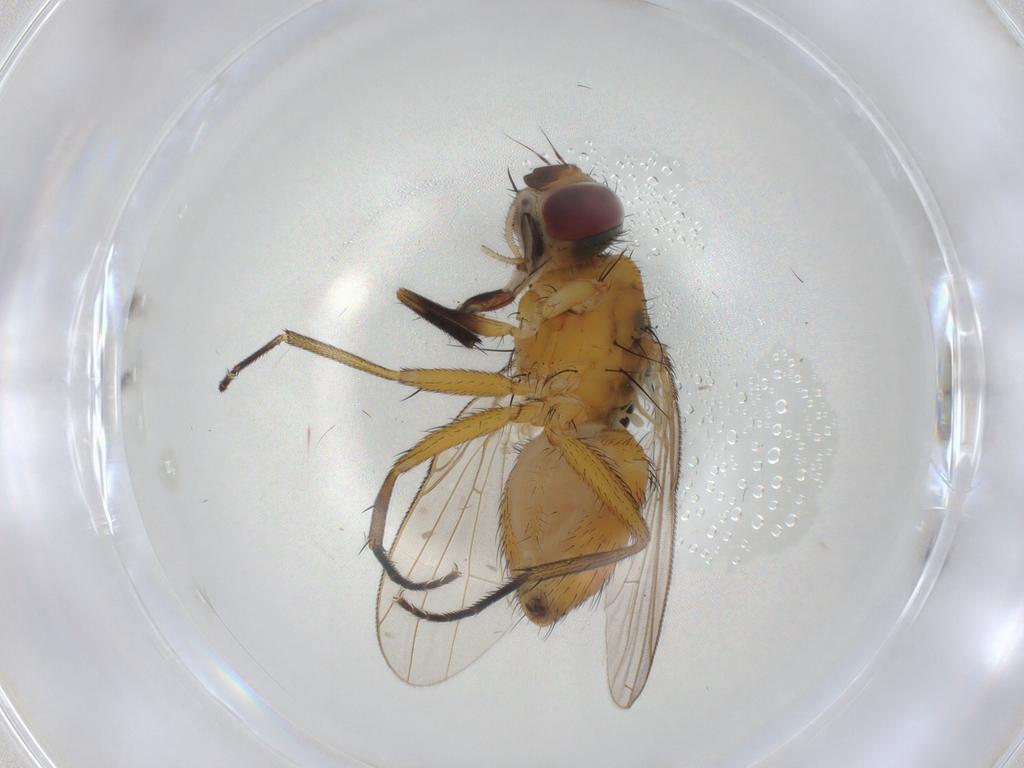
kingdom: Animalia
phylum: Arthropoda
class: Insecta
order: Diptera
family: Muscidae
